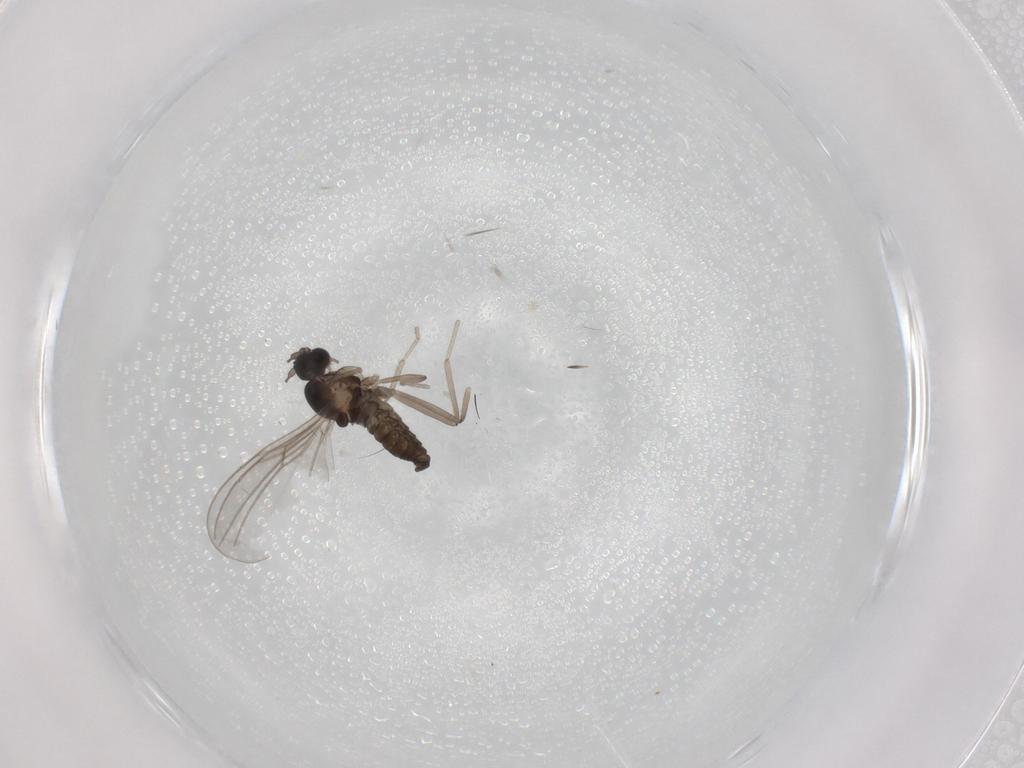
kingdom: Animalia
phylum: Arthropoda
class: Insecta
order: Diptera
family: Cecidomyiidae
